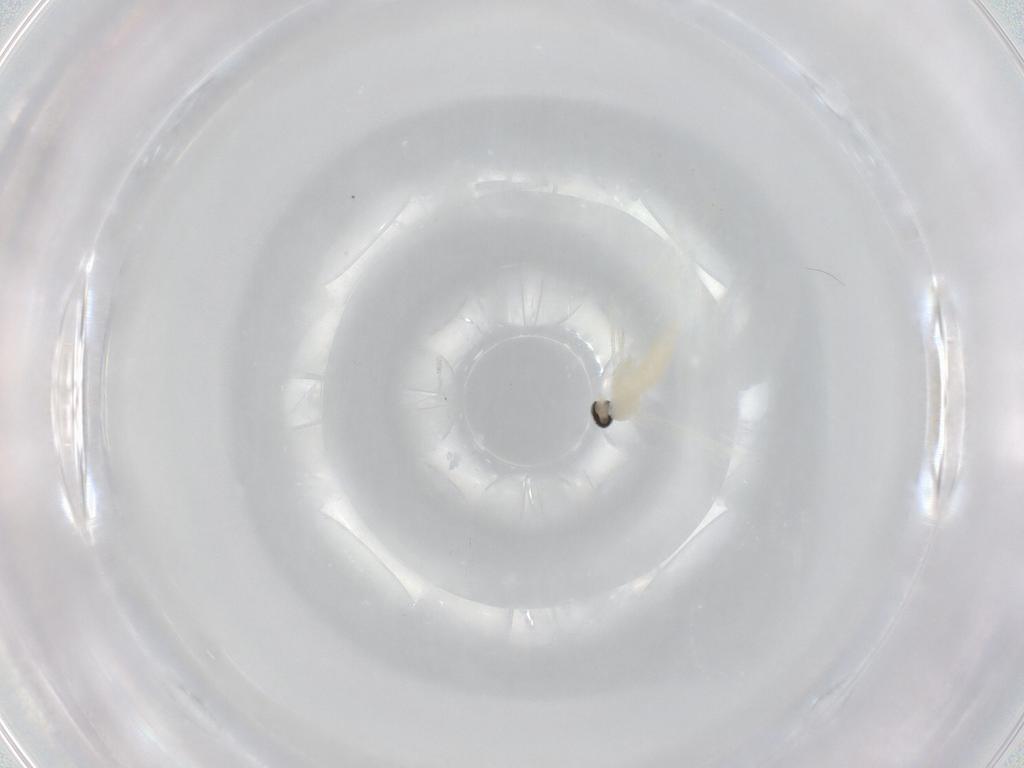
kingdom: Animalia
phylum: Arthropoda
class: Insecta
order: Diptera
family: Cecidomyiidae
